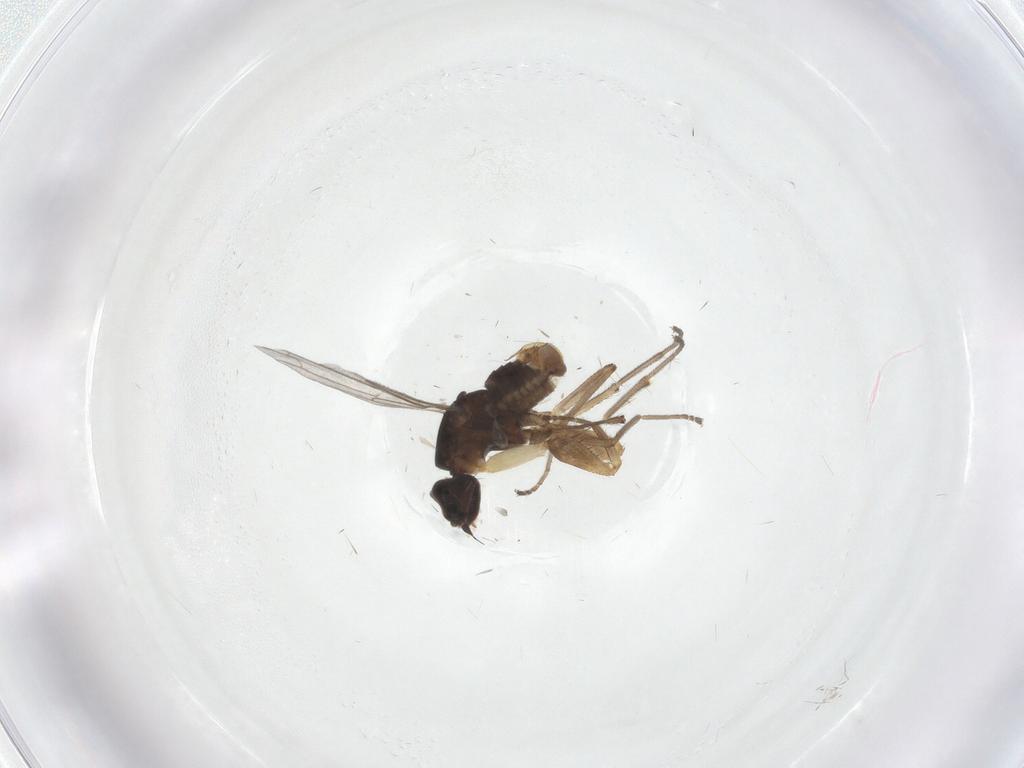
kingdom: Animalia
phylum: Arthropoda
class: Insecta
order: Diptera
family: Empididae
